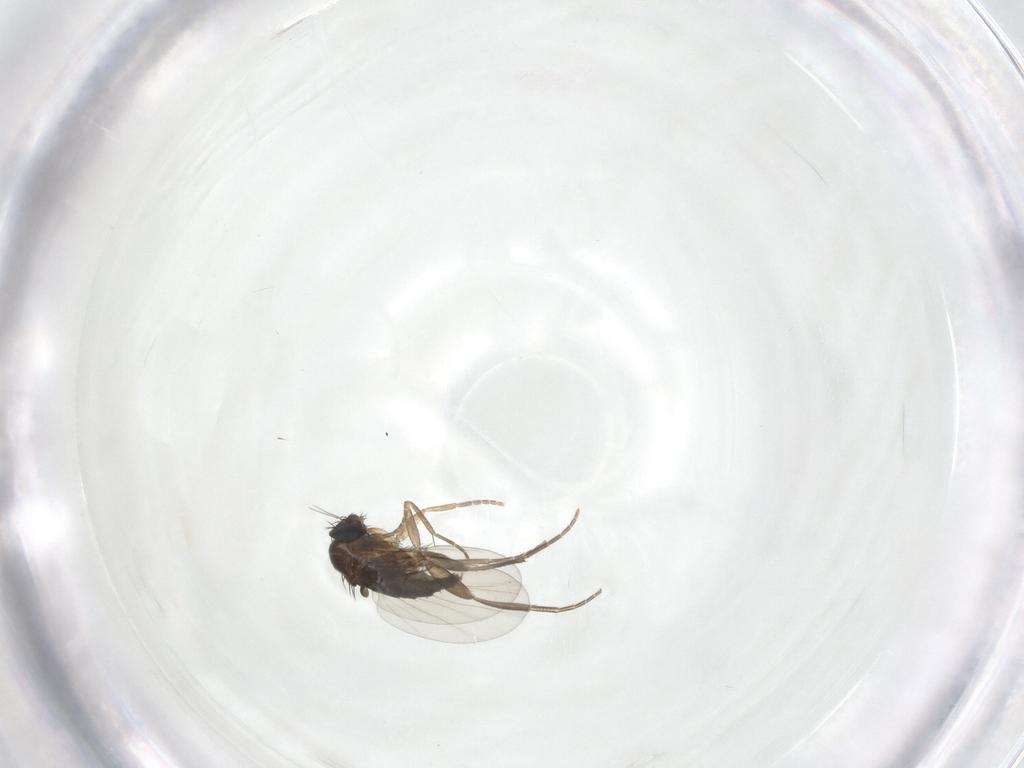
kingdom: Animalia
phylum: Arthropoda
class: Insecta
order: Diptera
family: Phoridae
